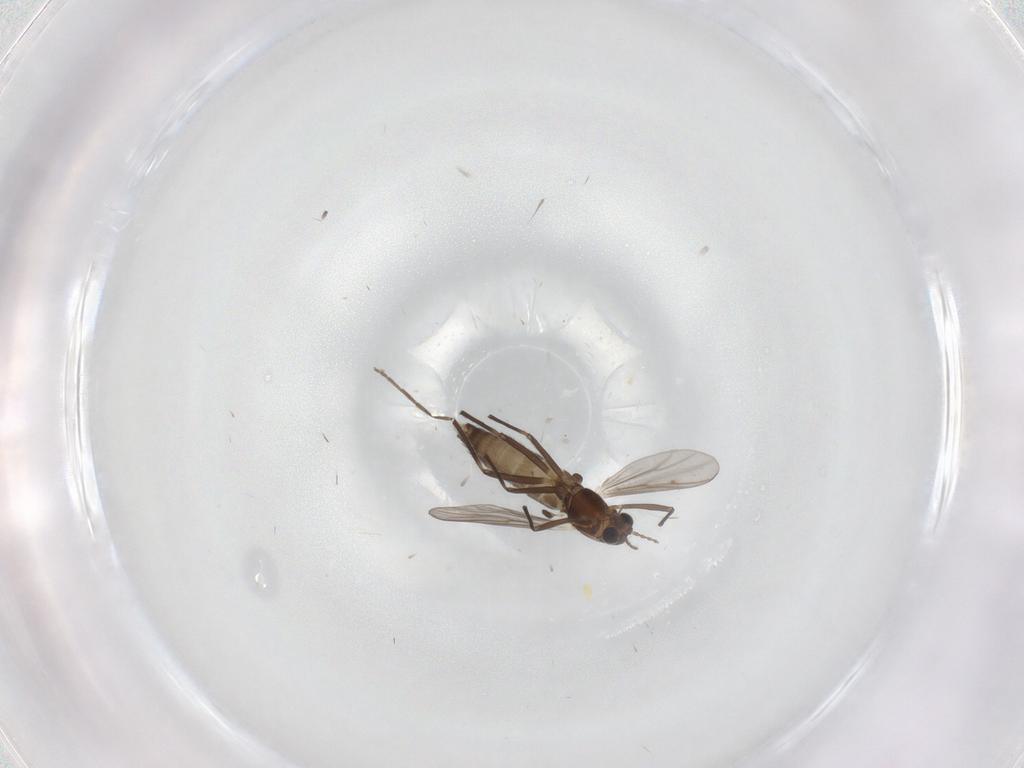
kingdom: Animalia
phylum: Arthropoda
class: Insecta
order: Diptera
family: Chironomidae
